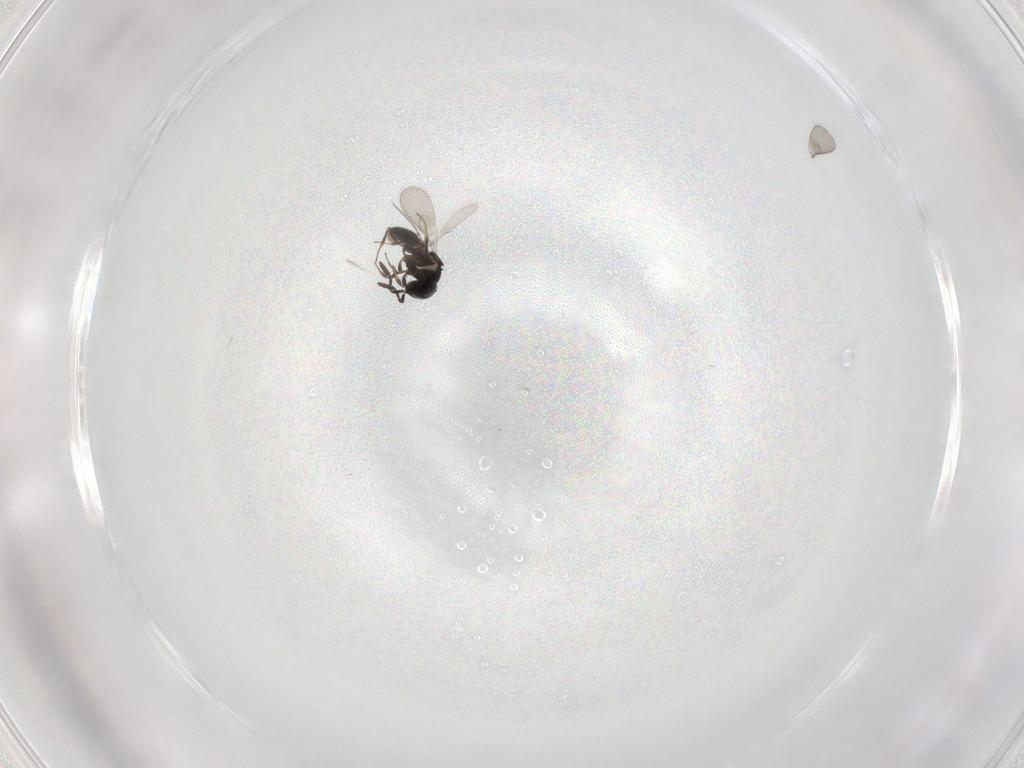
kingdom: Animalia
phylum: Arthropoda
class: Insecta
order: Hymenoptera
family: Scelionidae
